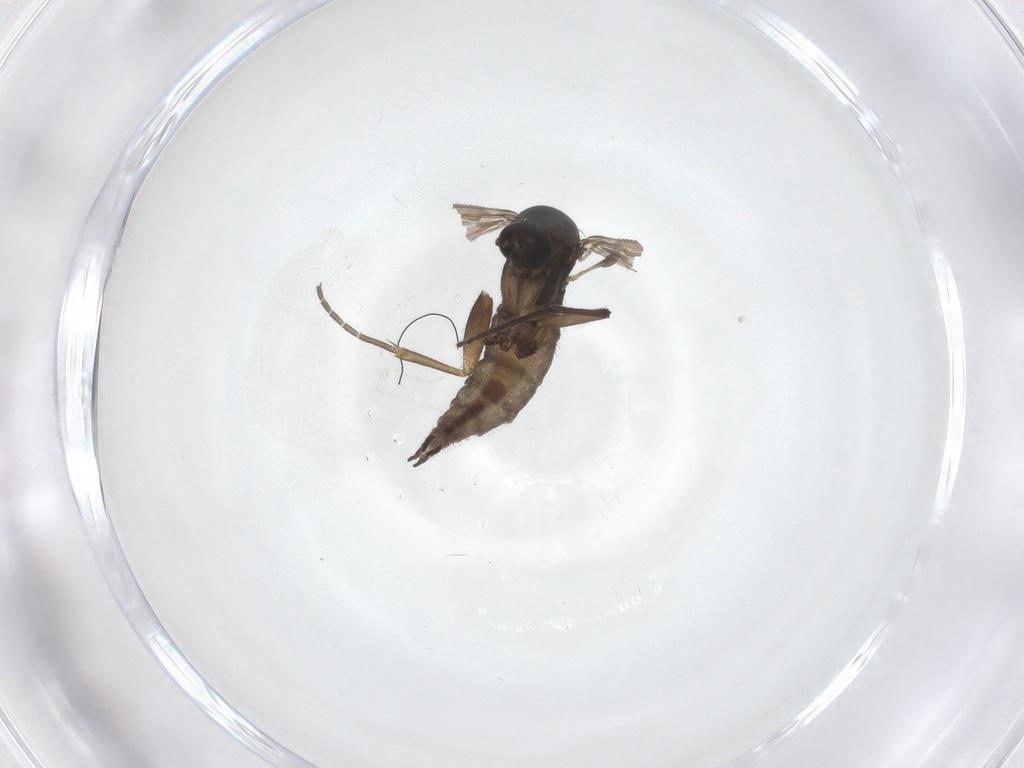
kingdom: Animalia
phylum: Arthropoda
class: Insecta
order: Diptera
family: Sciaridae
